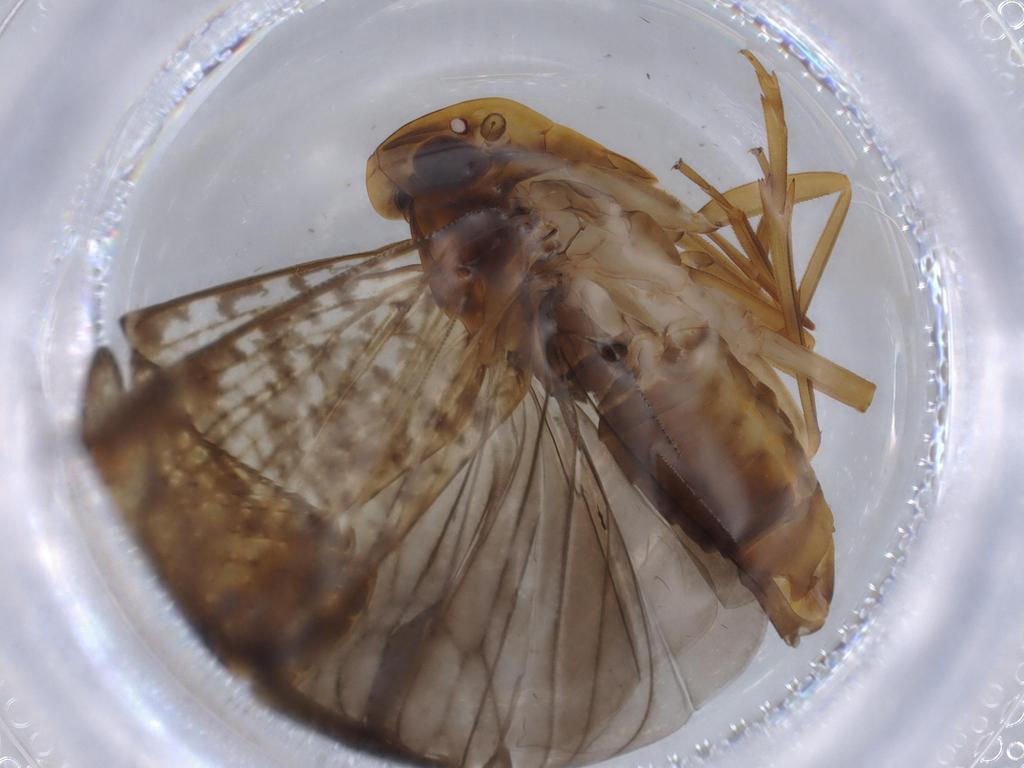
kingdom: Animalia
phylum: Arthropoda
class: Insecta
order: Hemiptera
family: Cixiidae
